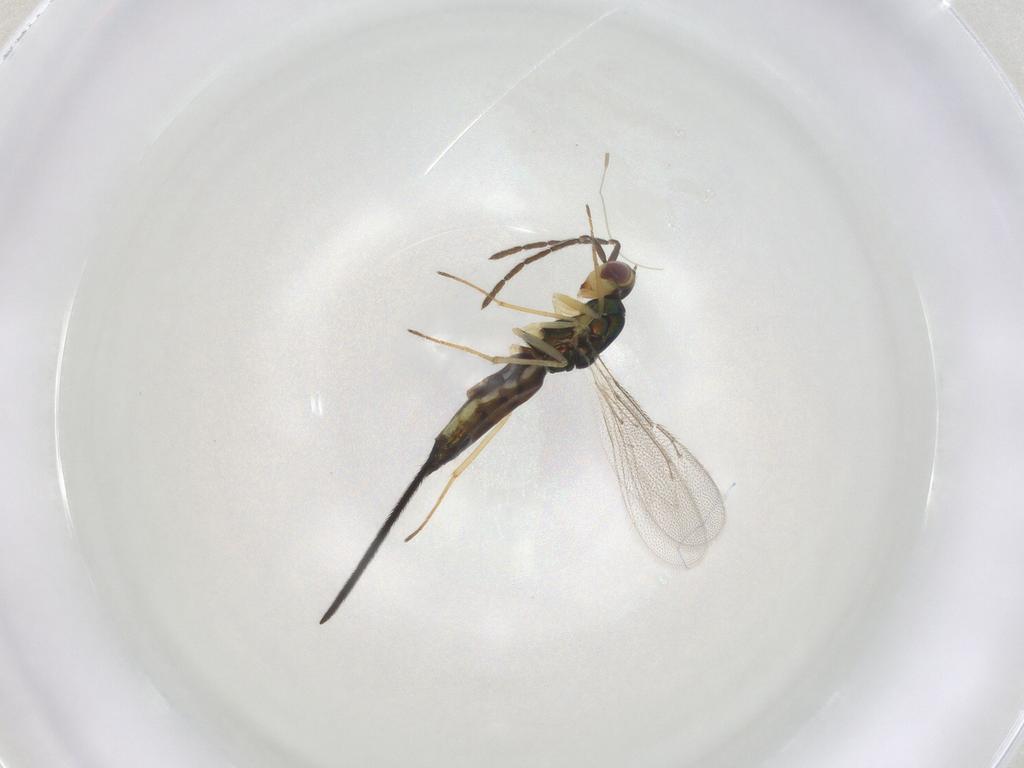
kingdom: Animalia
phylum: Arthropoda
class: Insecta
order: Hymenoptera
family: Eulophidae
